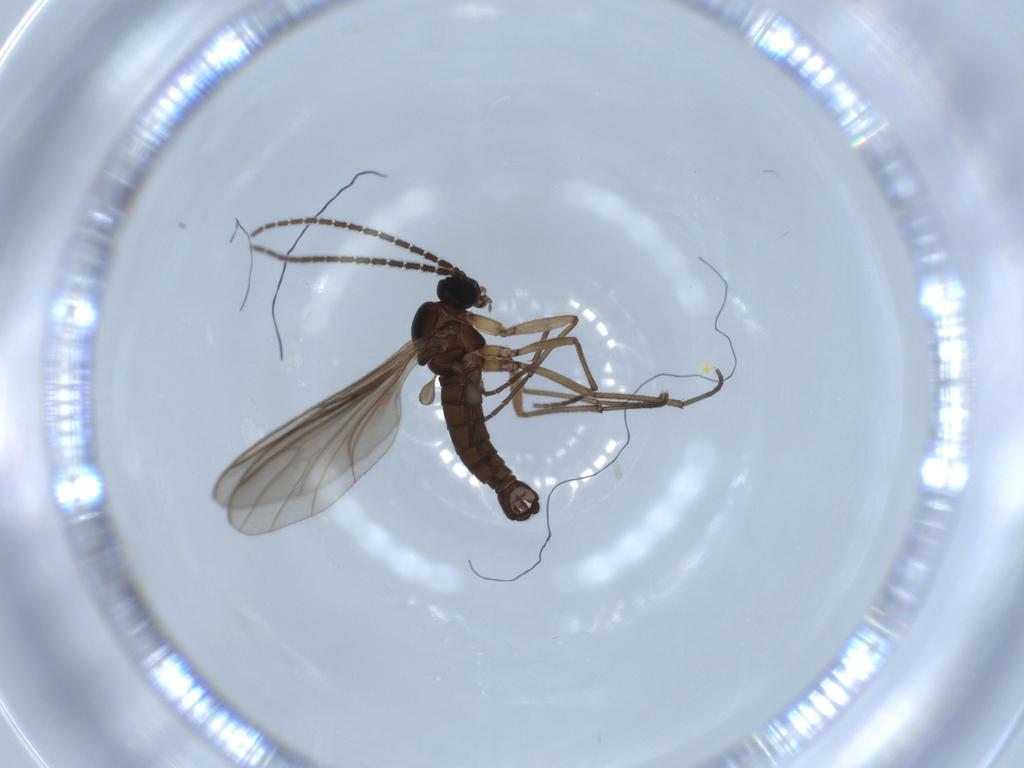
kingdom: Animalia
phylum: Arthropoda
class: Insecta
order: Diptera
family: Sciaridae
